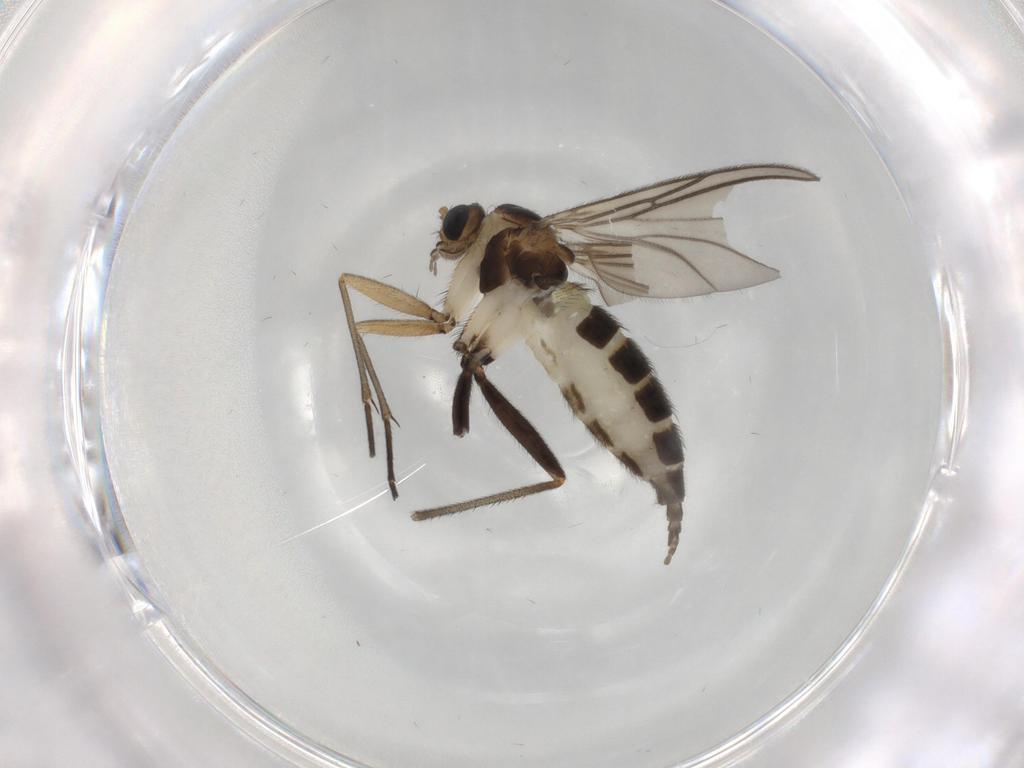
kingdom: Animalia
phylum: Arthropoda
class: Insecta
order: Diptera
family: Sciaridae
